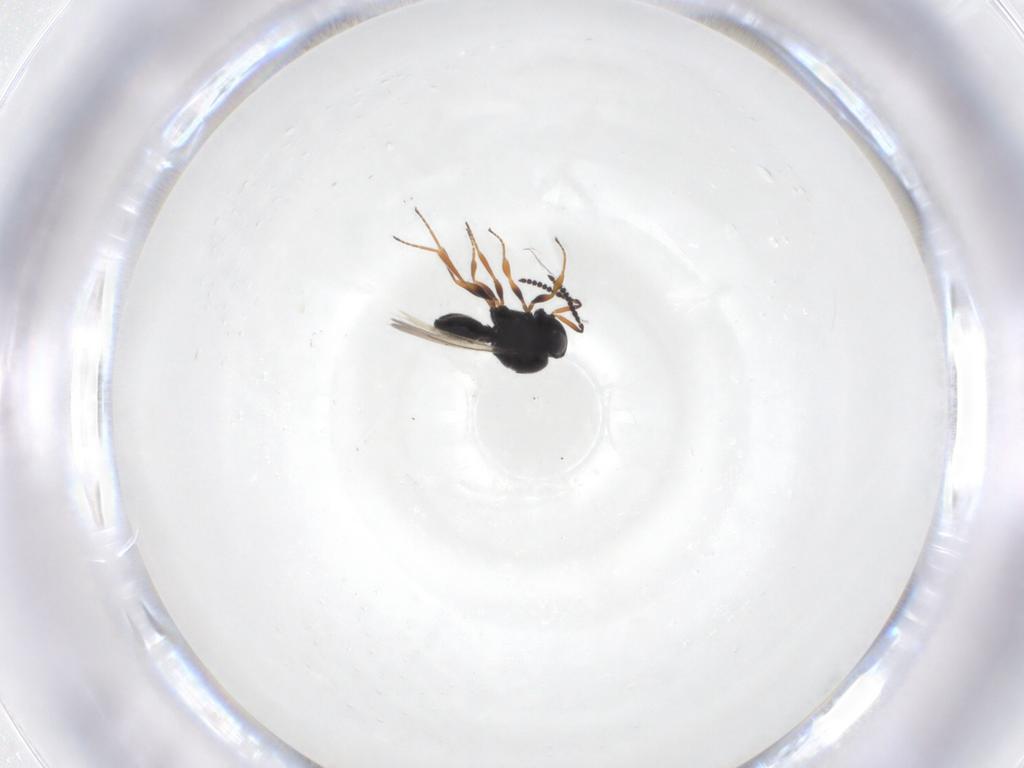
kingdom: Animalia
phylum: Arthropoda
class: Insecta
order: Hymenoptera
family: Scelionidae
